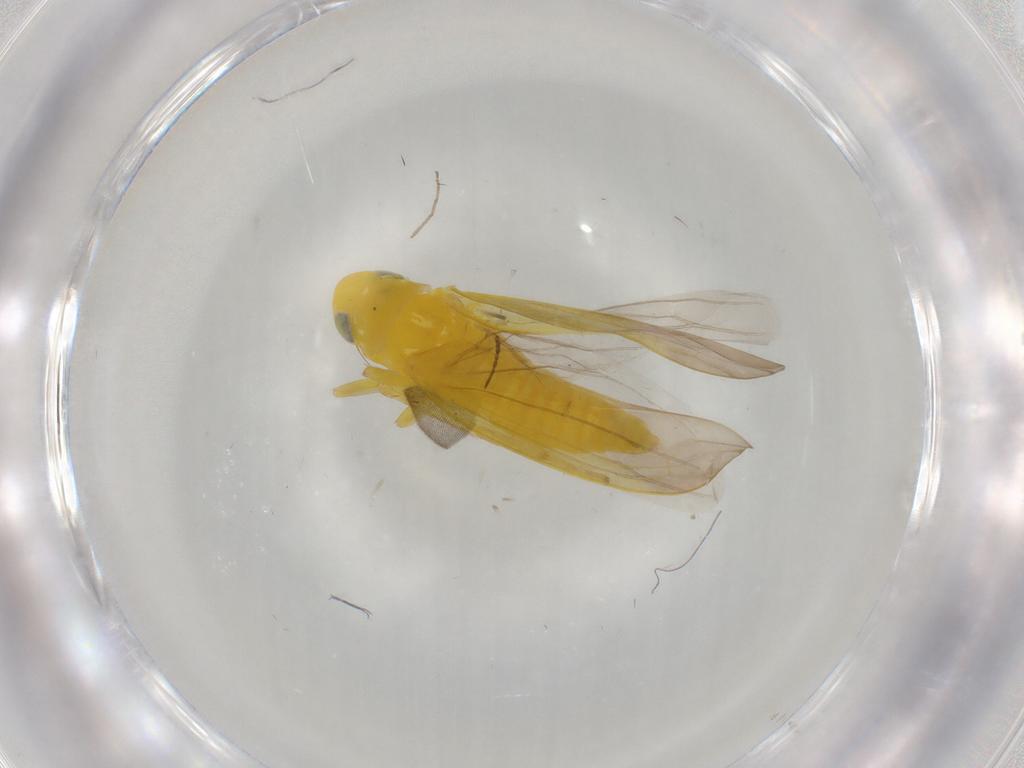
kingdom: Animalia
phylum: Arthropoda
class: Insecta
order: Hemiptera
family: Cicadellidae
